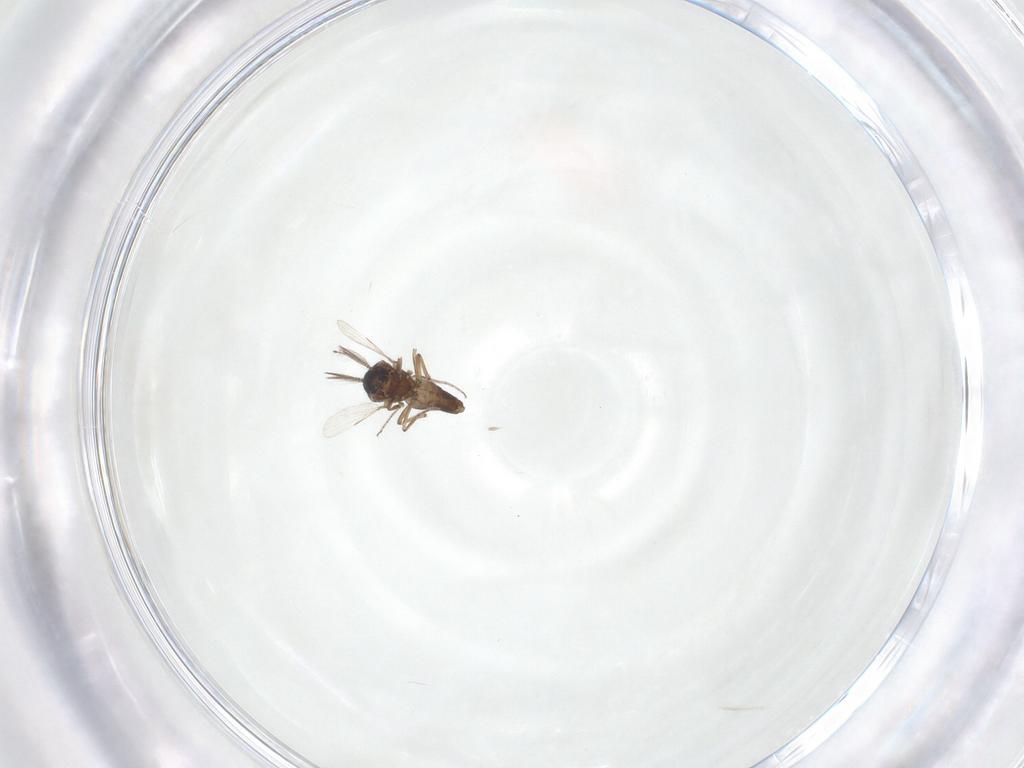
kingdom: Animalia
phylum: Arthropoda
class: Insecta
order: Diptera
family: Ceratopogonidae
